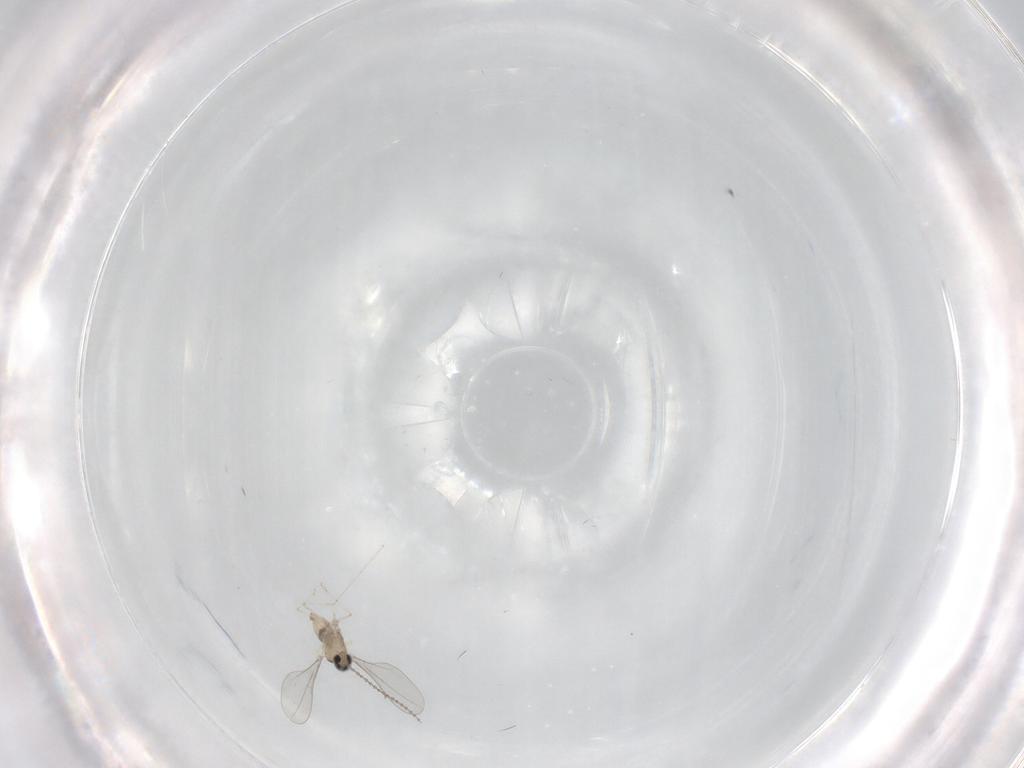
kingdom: Animalia
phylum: Arthropoda
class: Insecta
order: Diptera
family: Cecidomyiidae
